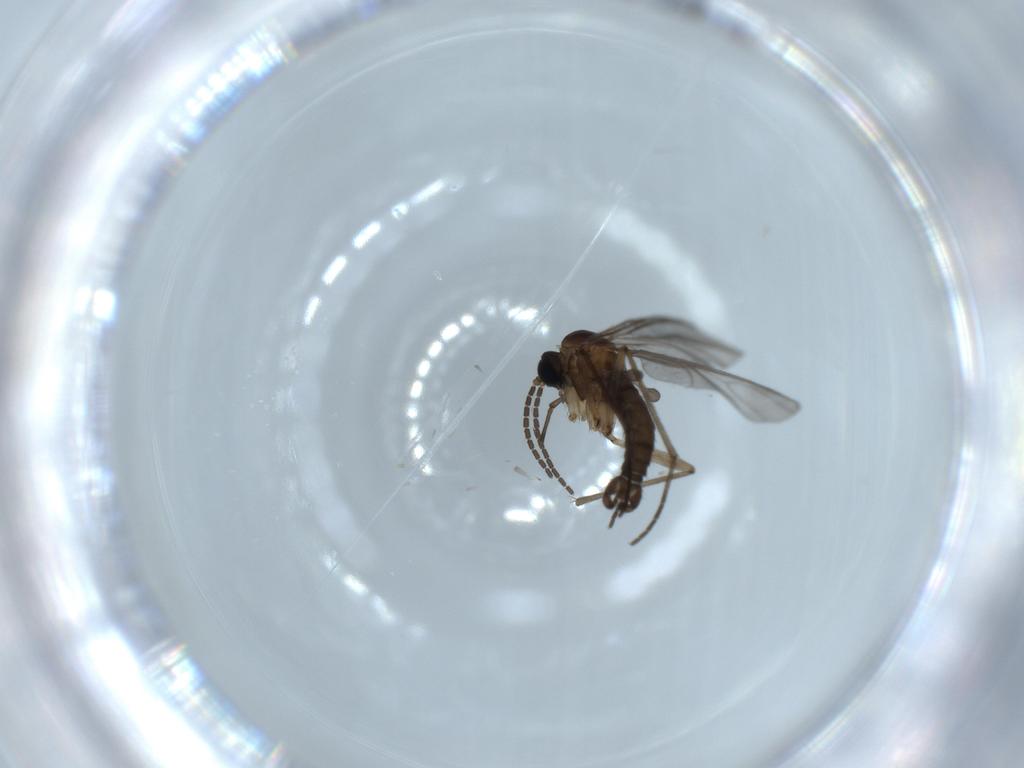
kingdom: Animalia
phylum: Arthropoda
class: Insecta
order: Diptera
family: Sciaridae
